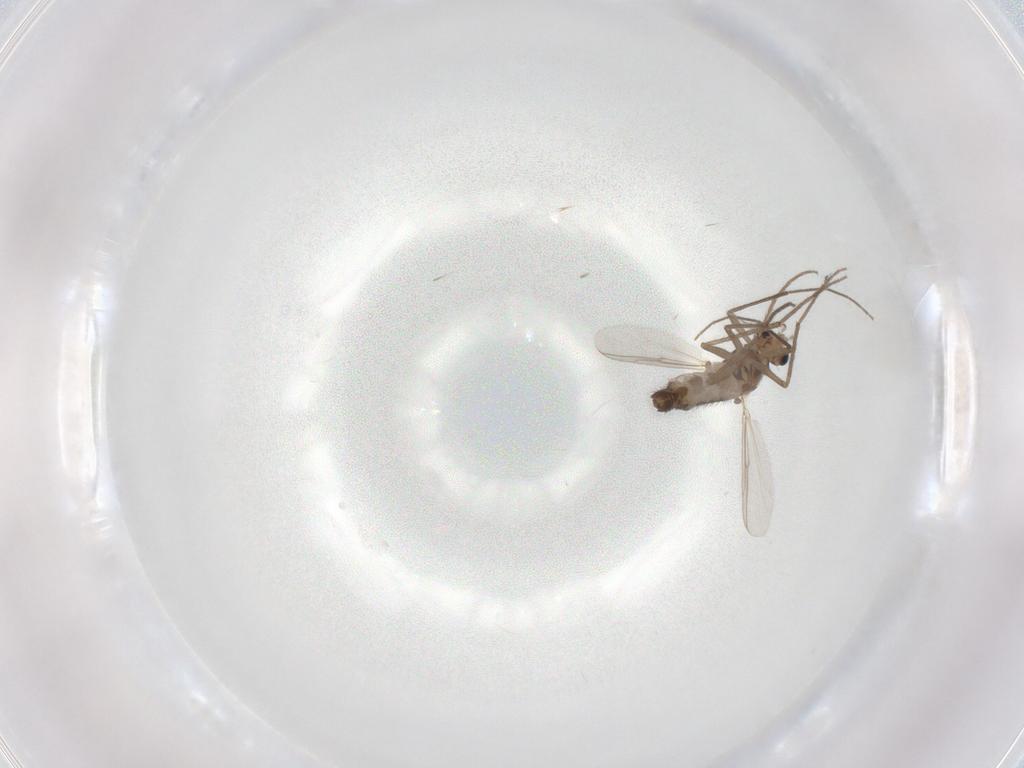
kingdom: Animalia
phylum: Arthropoda
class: Insecta
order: Diptera
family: Chironomidae
